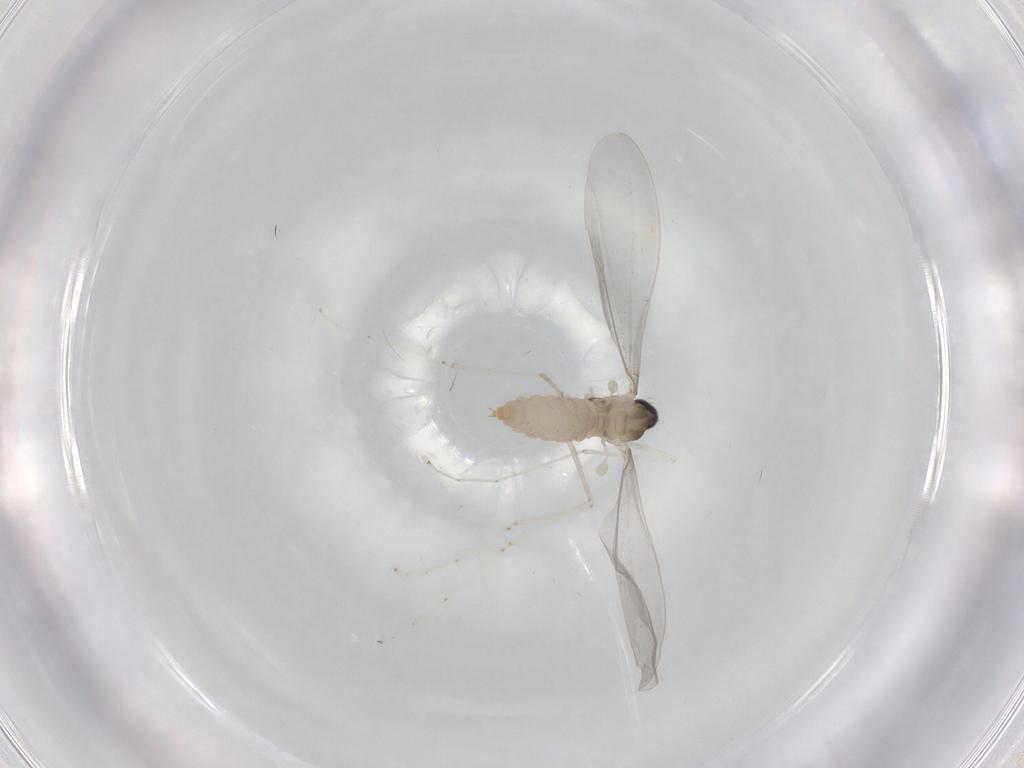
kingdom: Animalia
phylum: Arthropoda
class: Insecta
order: Diptera
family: Cecidomyiidae
